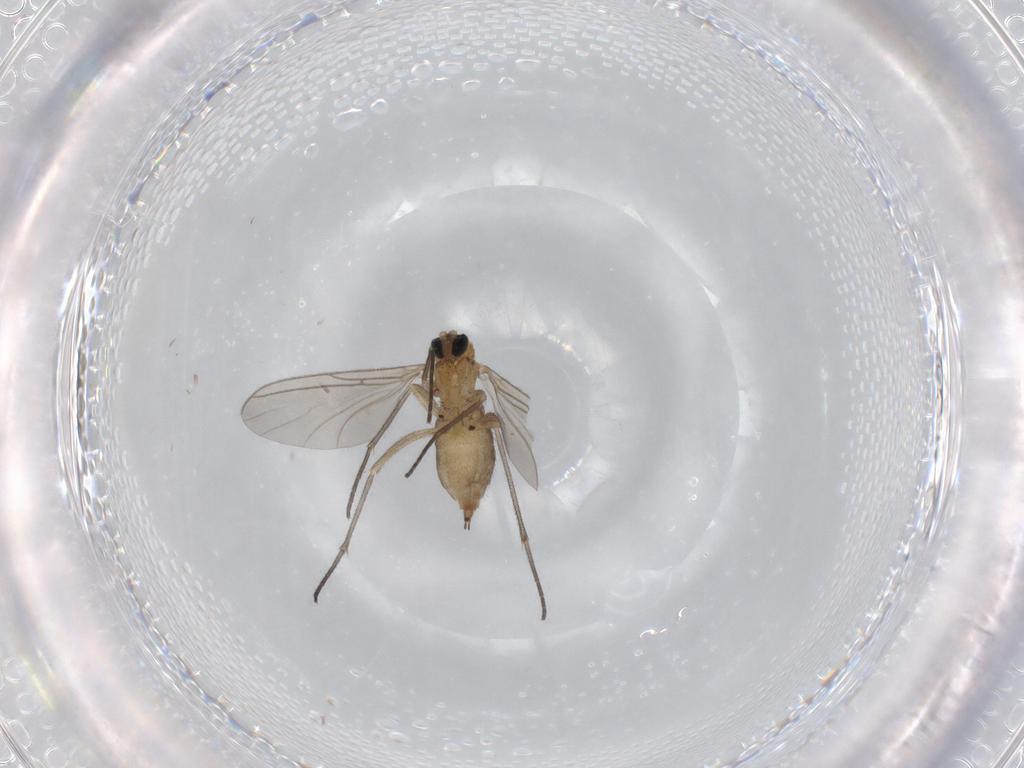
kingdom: Animalia
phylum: Arthropoda
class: Insecta
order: Diptera
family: Sciaridae
